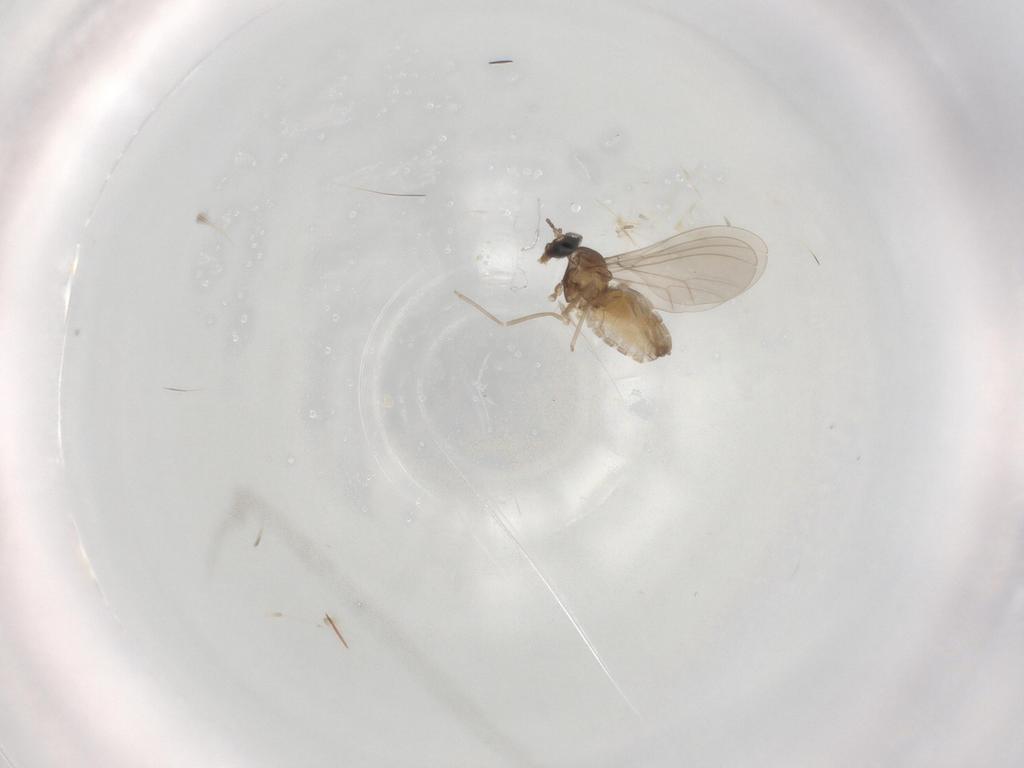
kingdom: Animalia
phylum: Arthropoda
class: Insecta
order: Diptera
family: Cecidomyiidae
